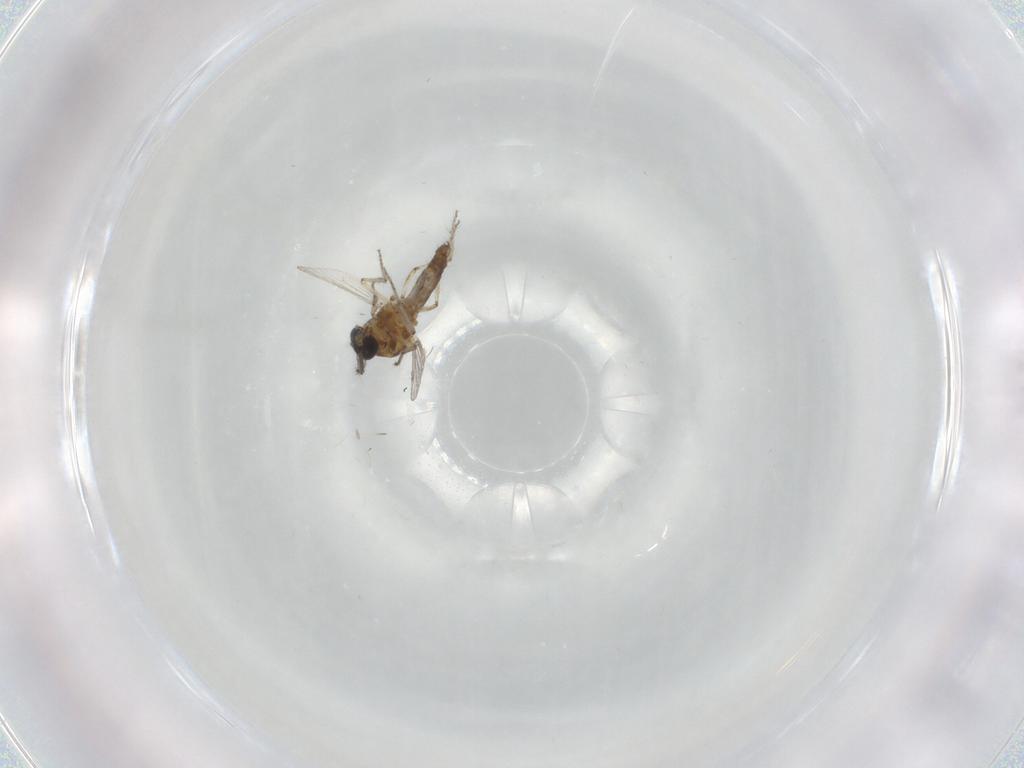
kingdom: Animalia
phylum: Arthropoda
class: Insecta
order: Diptera
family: Ceratopogonidae
